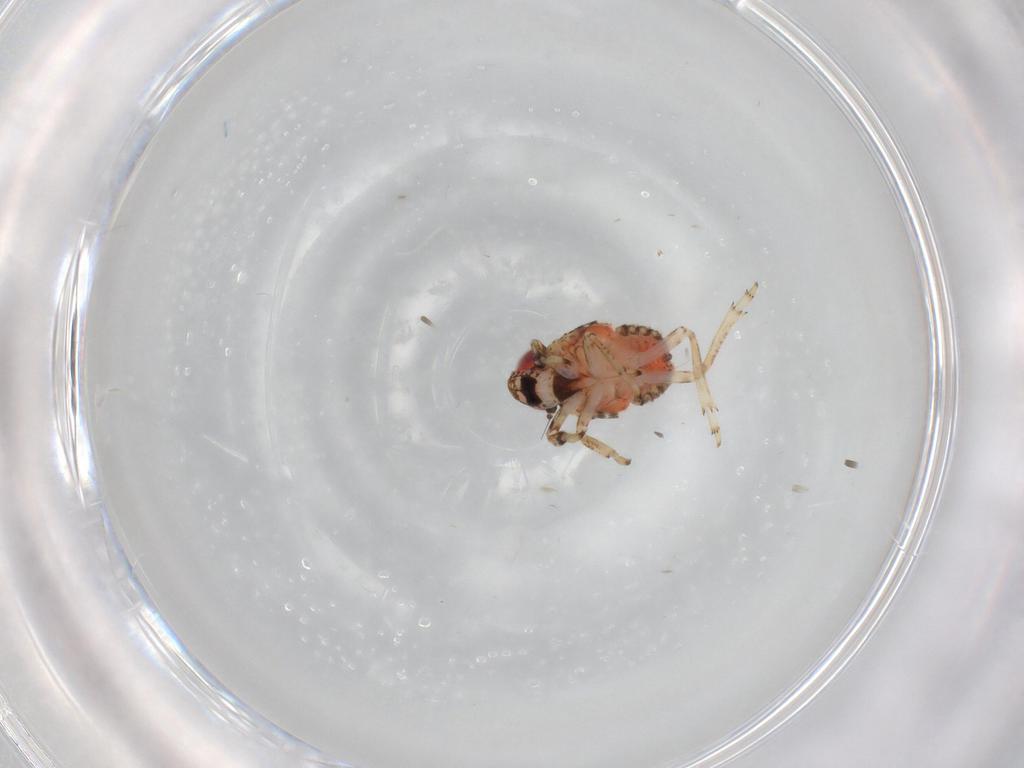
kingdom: Animalia
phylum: Arthropoda
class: Insecta
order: Hemiptera
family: Issidae
